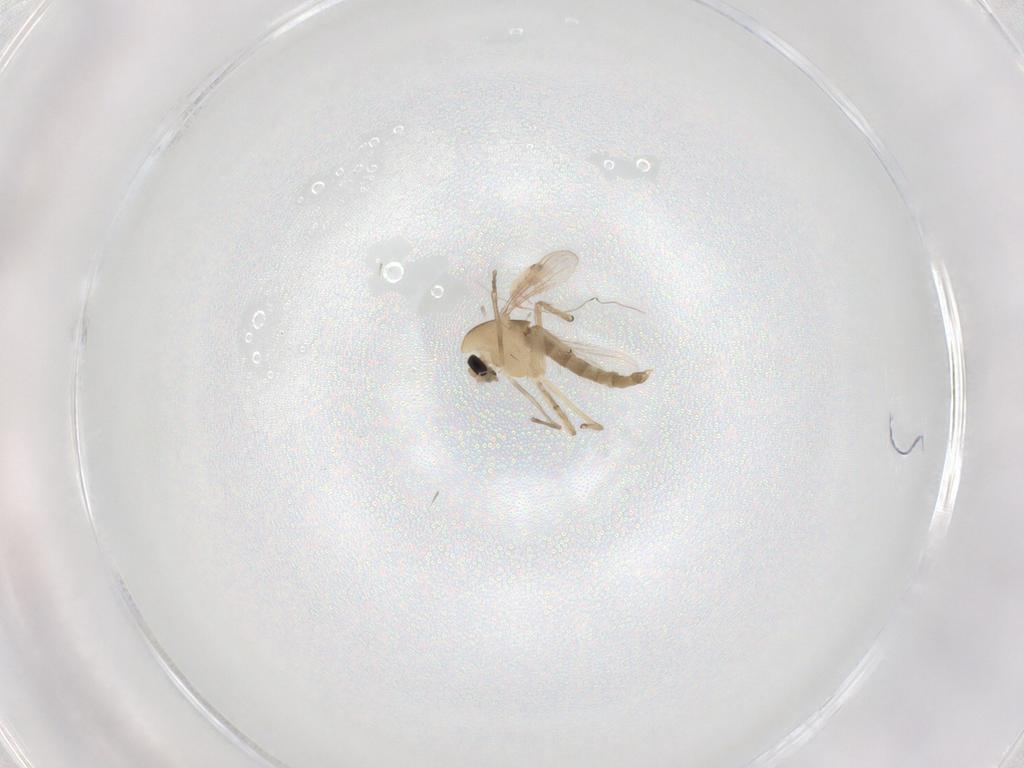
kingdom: Animalia
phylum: Arthropoda
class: Insecta
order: Diptera
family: Chironomidae
